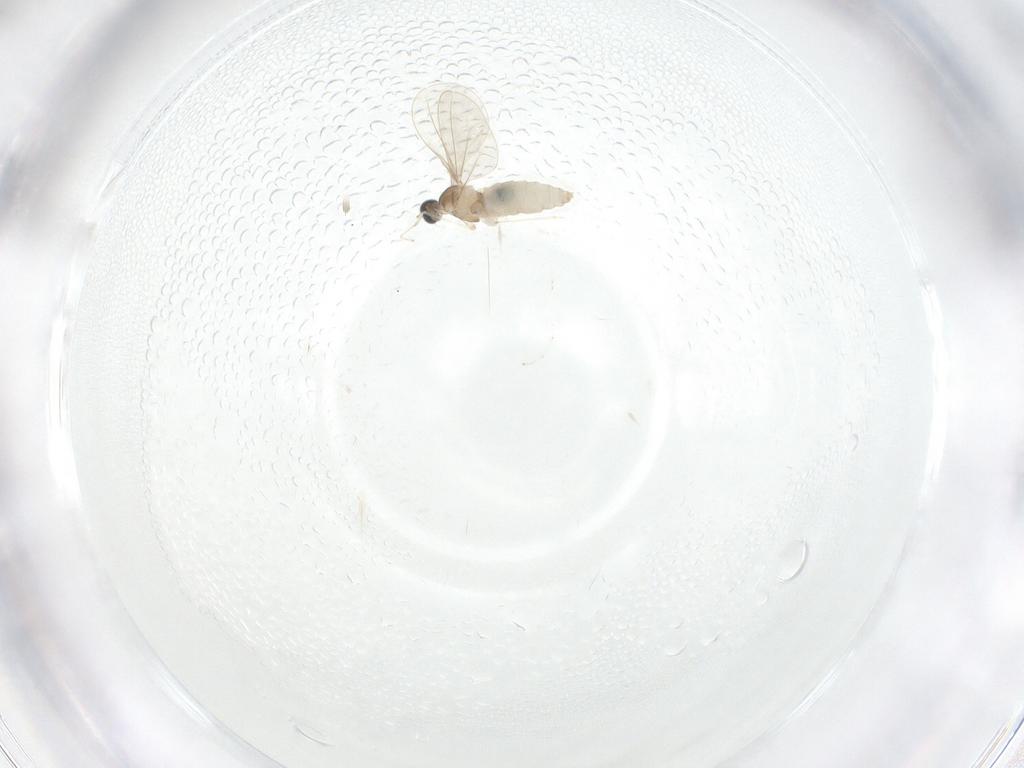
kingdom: Animalia
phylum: Arthropoda
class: Insecta
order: Diptera
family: Cecidomyiidae
